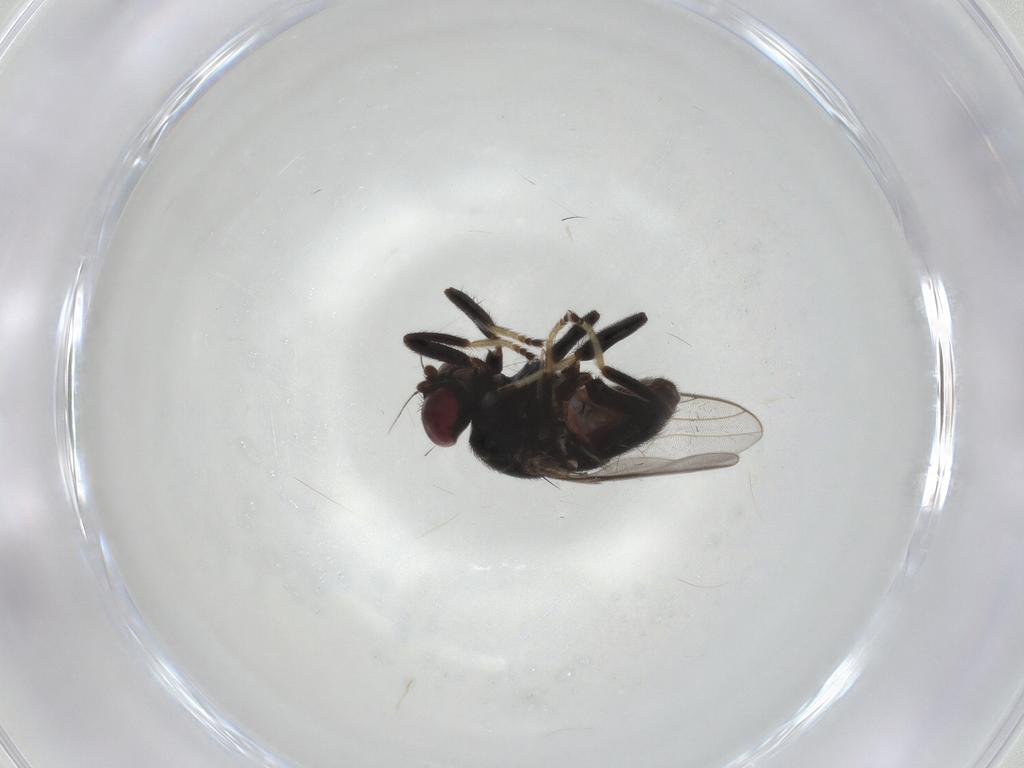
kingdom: Animalia
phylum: Arthropoda
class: Insecta
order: Diptera
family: Chloropidae
